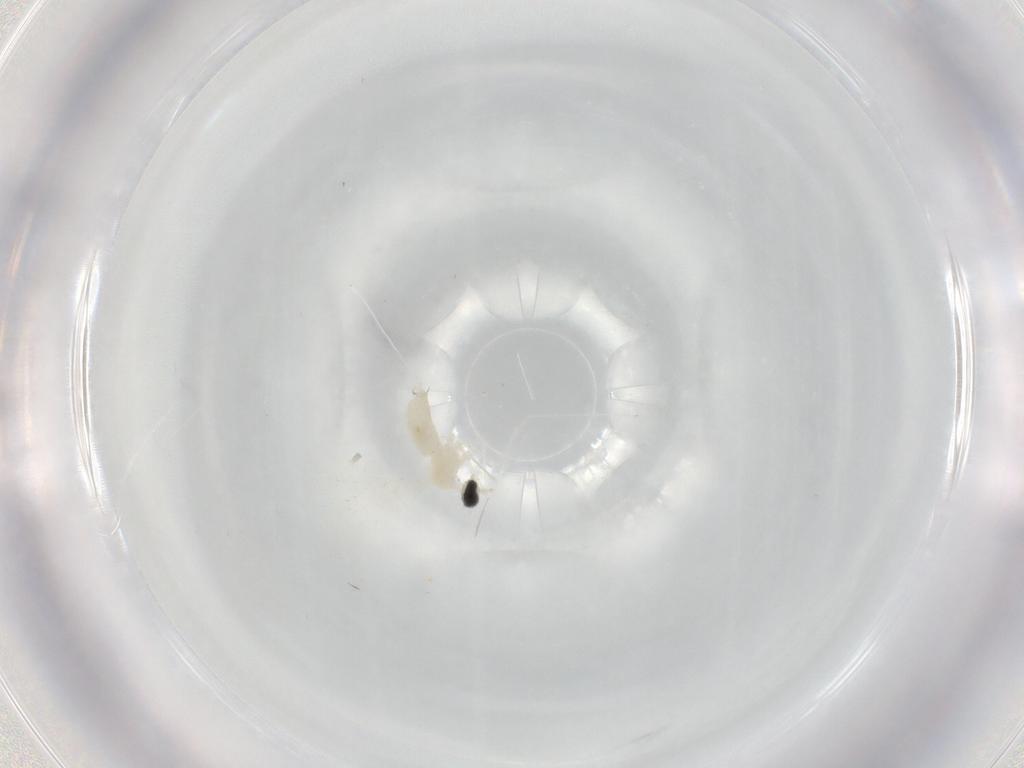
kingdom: Animalia
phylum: Arthropoda
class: Insecta
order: Diptera
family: Cecidomyiidae
